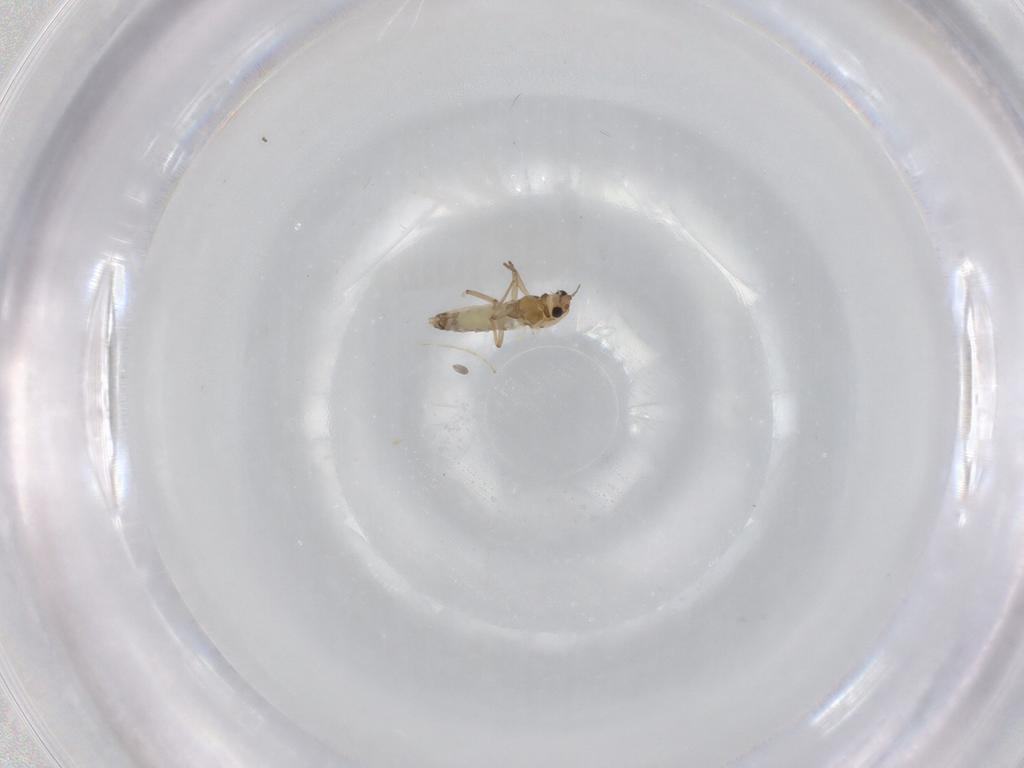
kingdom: Animalia
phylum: Arthropoda
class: Insecta
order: Diptera
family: Chironomidae
